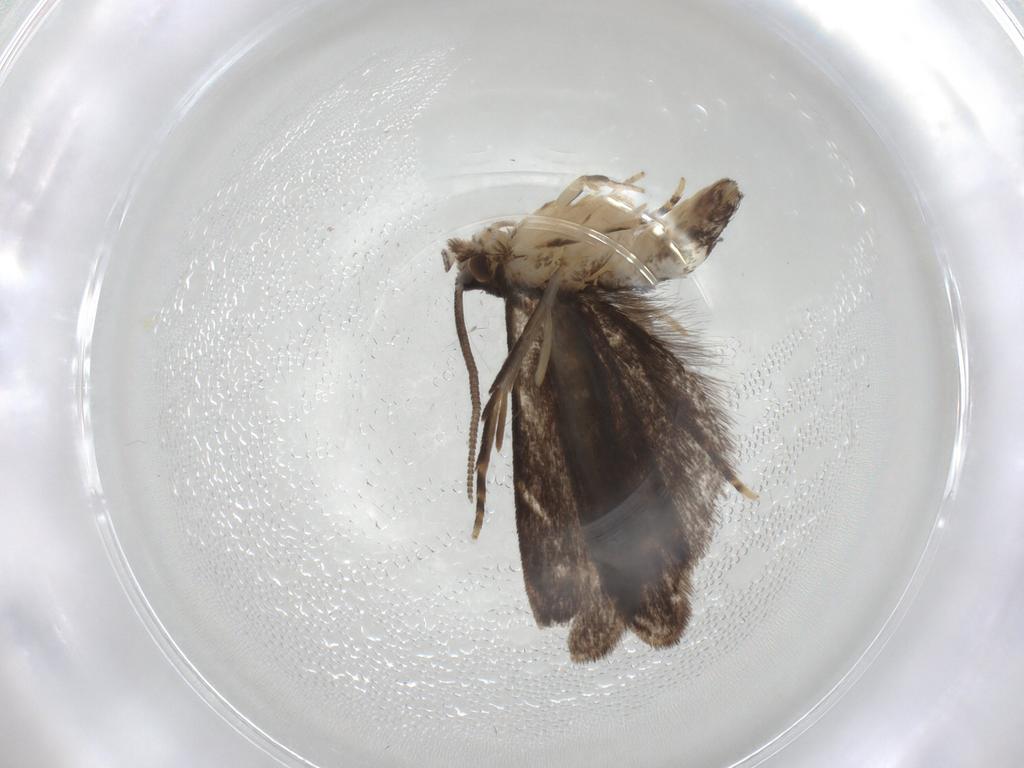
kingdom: Animalia
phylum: Arthropoda
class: Insecta
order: Lepidoptera
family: Dryadaulidae
